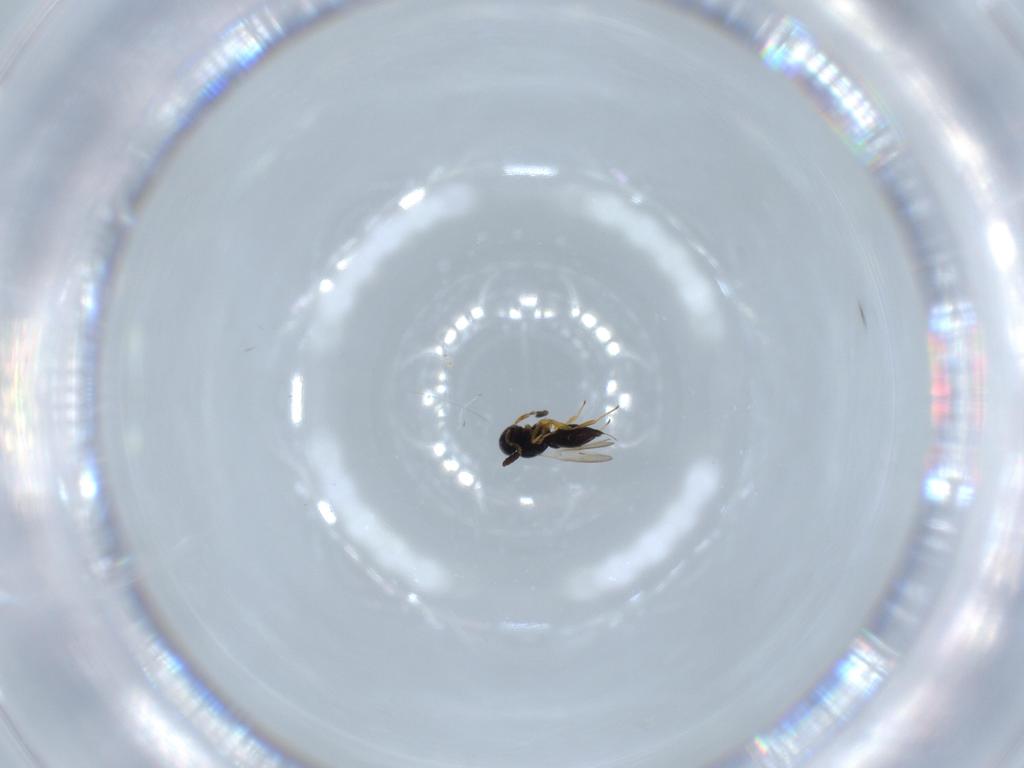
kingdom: Animalia
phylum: Arthropoda
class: Insecta
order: Hymenoptera
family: Scelionidae
